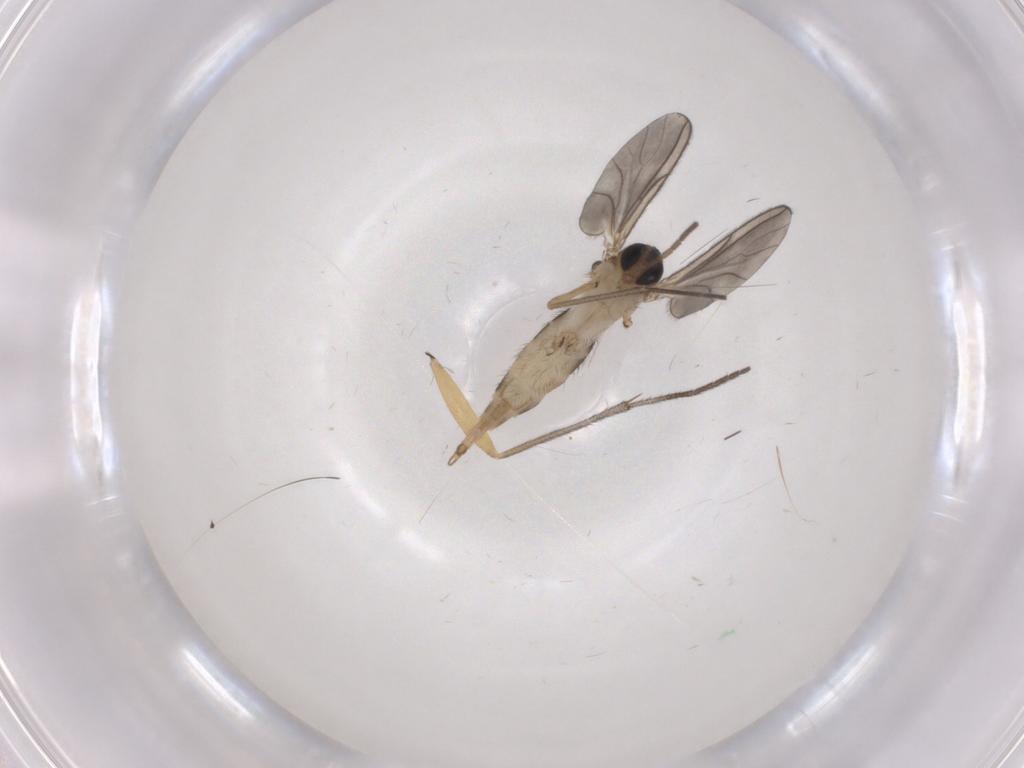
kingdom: Animalia
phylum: Arthropoda
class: Insecta
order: Diptera
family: Sciaridae
